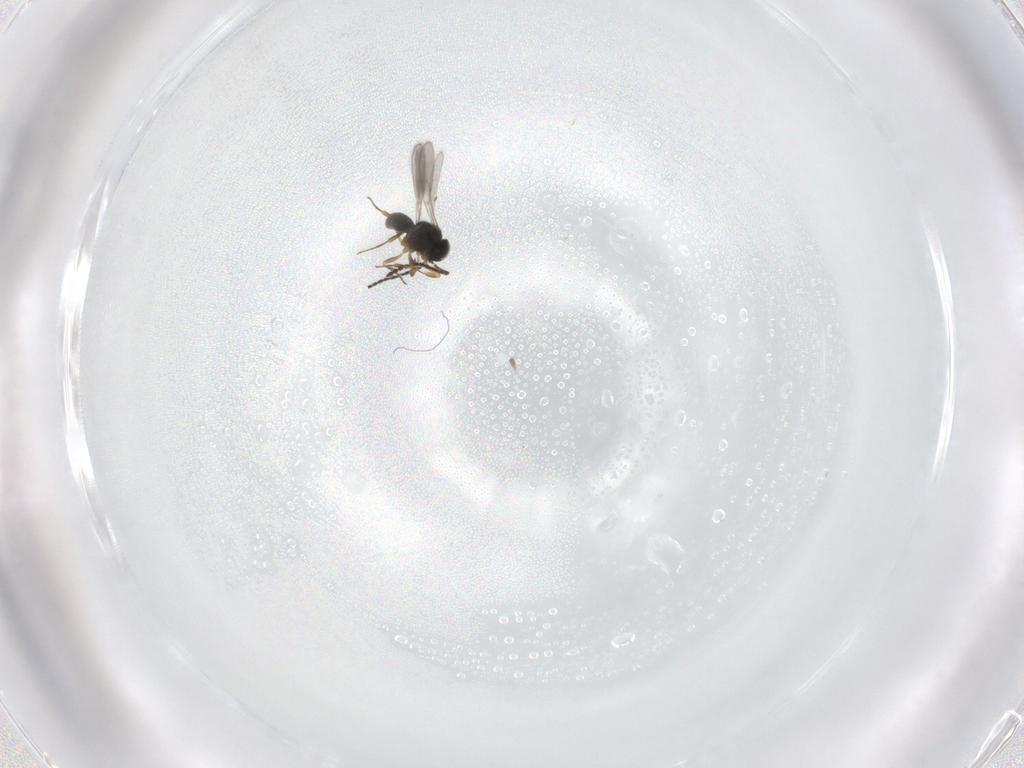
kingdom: Animalia
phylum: Arthropoda
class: Insecta
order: Hymenoptera
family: Scelionidae
